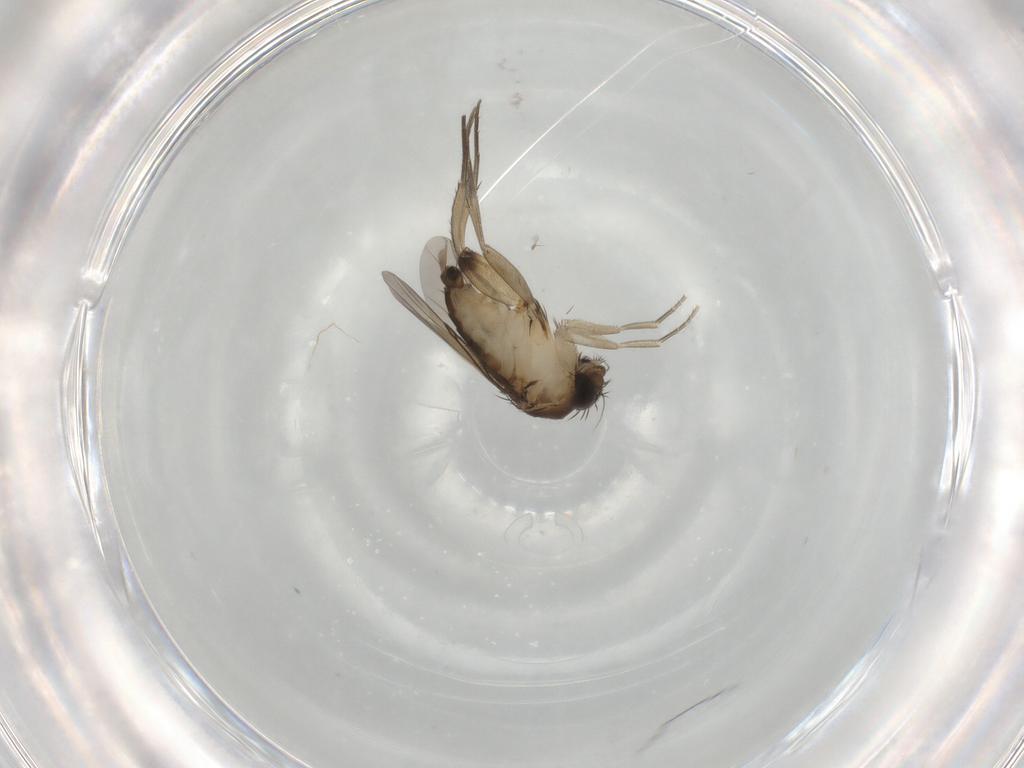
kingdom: Animalia
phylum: Arthropoda
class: Insecta
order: Diptera
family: Phoridae
